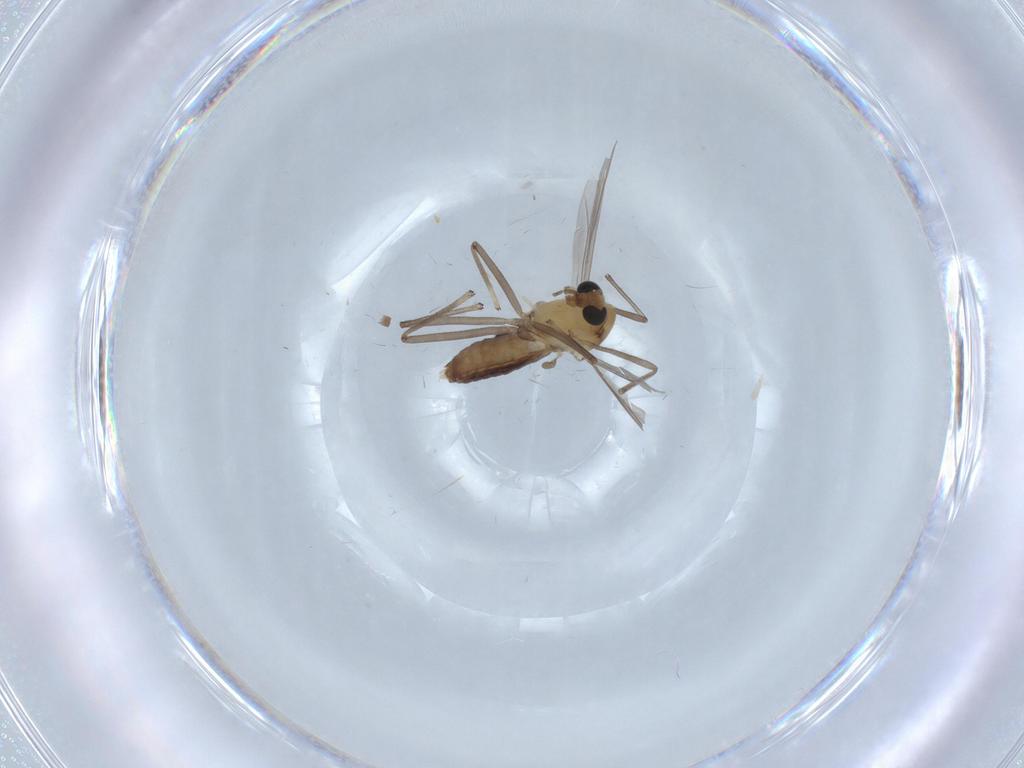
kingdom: Animalia
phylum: Arthropoda
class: Insecta
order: Diptera
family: Chironomidae
